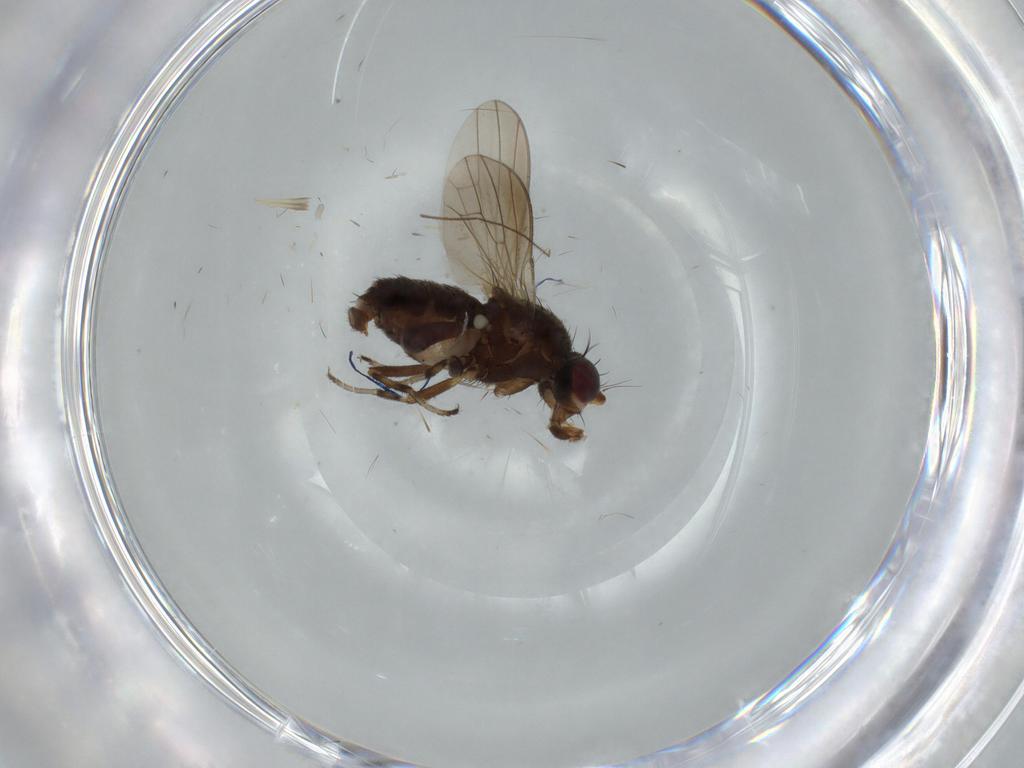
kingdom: Animalia
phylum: Arthropoda
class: Insecta
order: Diptera
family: Heleomyzidae
